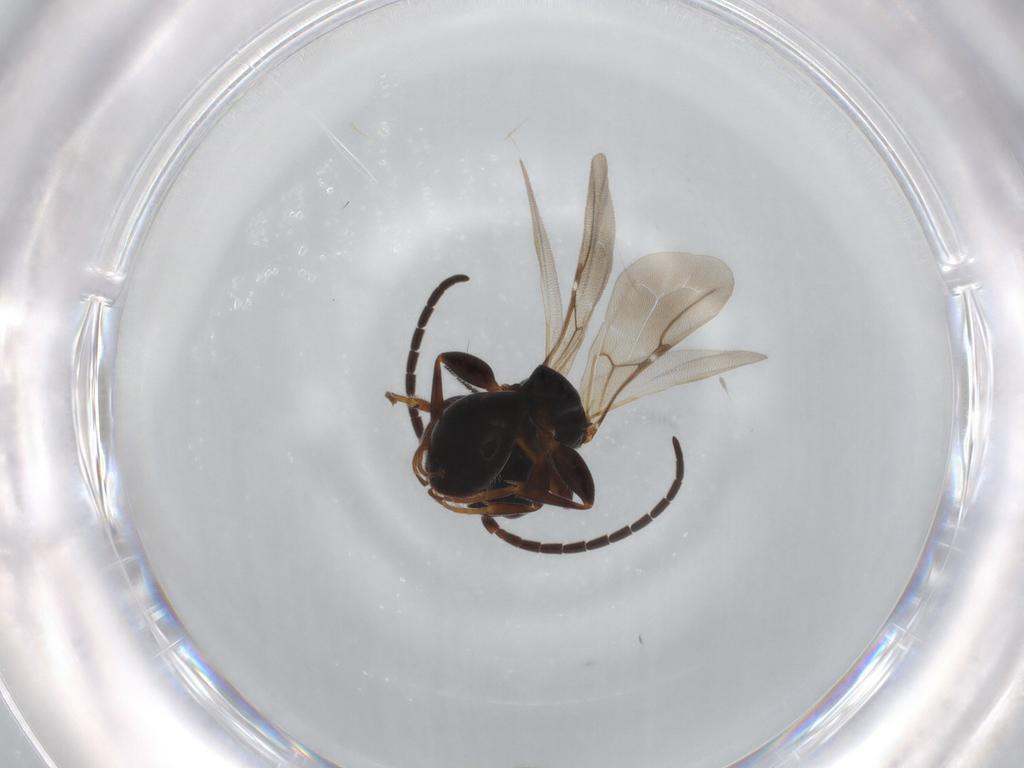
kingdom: Animalia
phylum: Arthropoda
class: Insecta
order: Hymenoptera
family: Bethylidae
